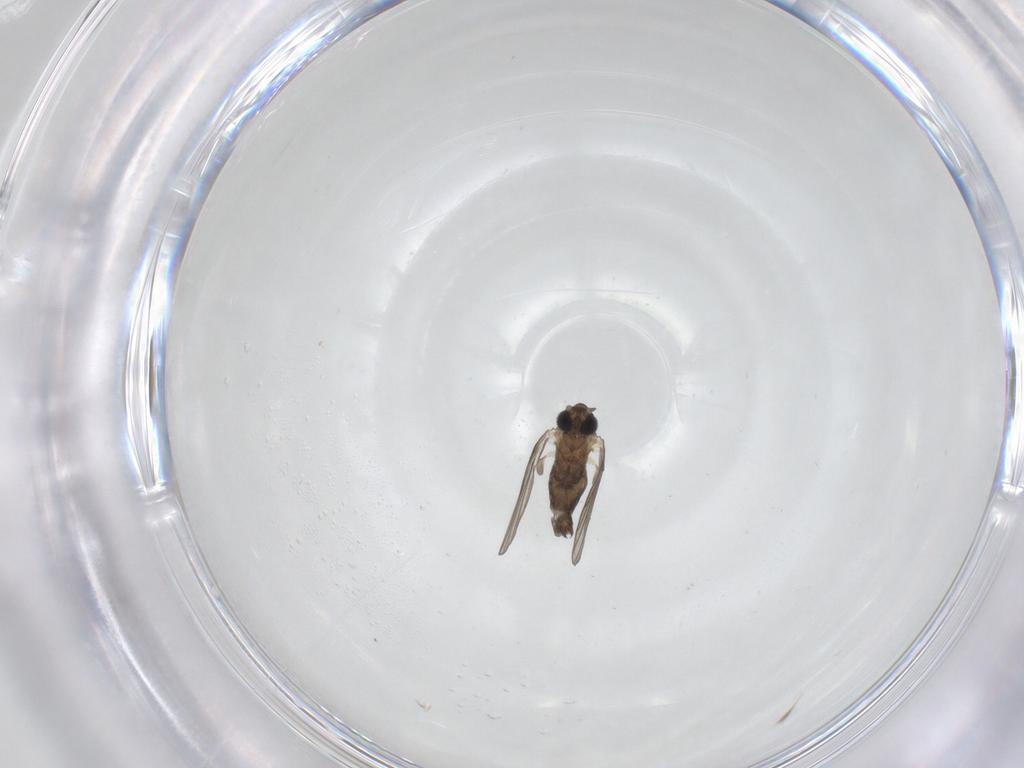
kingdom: Animalia
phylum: Arthropoda
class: Insecta
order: Diptera
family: Psychodidae
